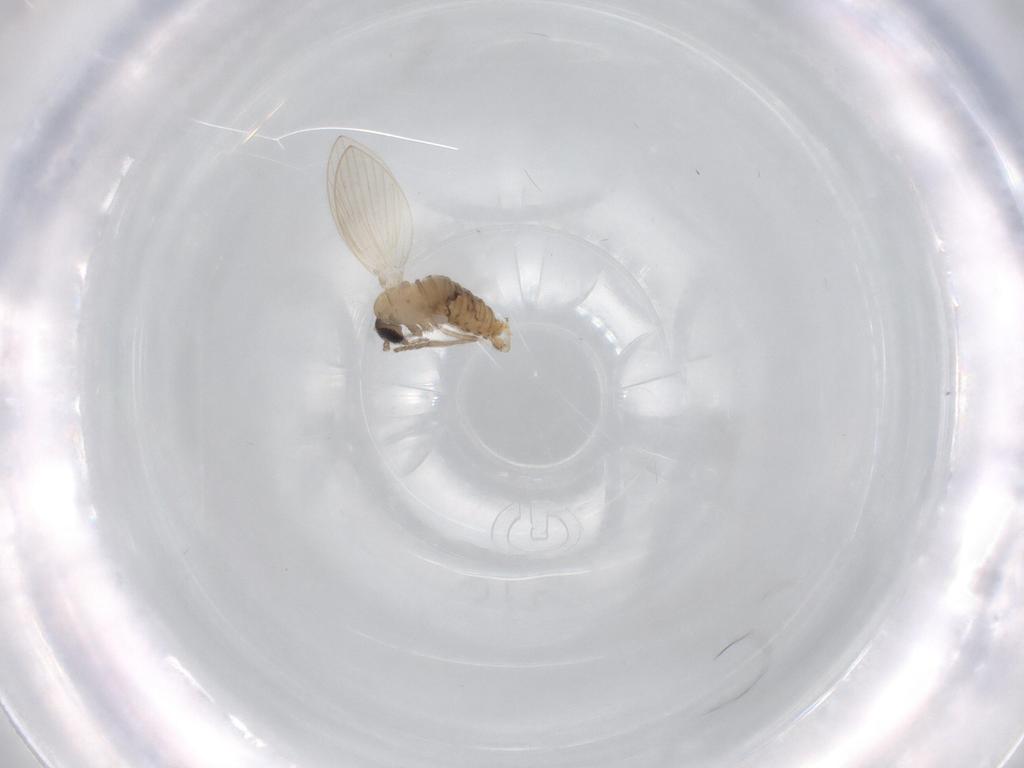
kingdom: Animalia
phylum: Arthropoda
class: Insecta
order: Diptera
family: Psychodidae
